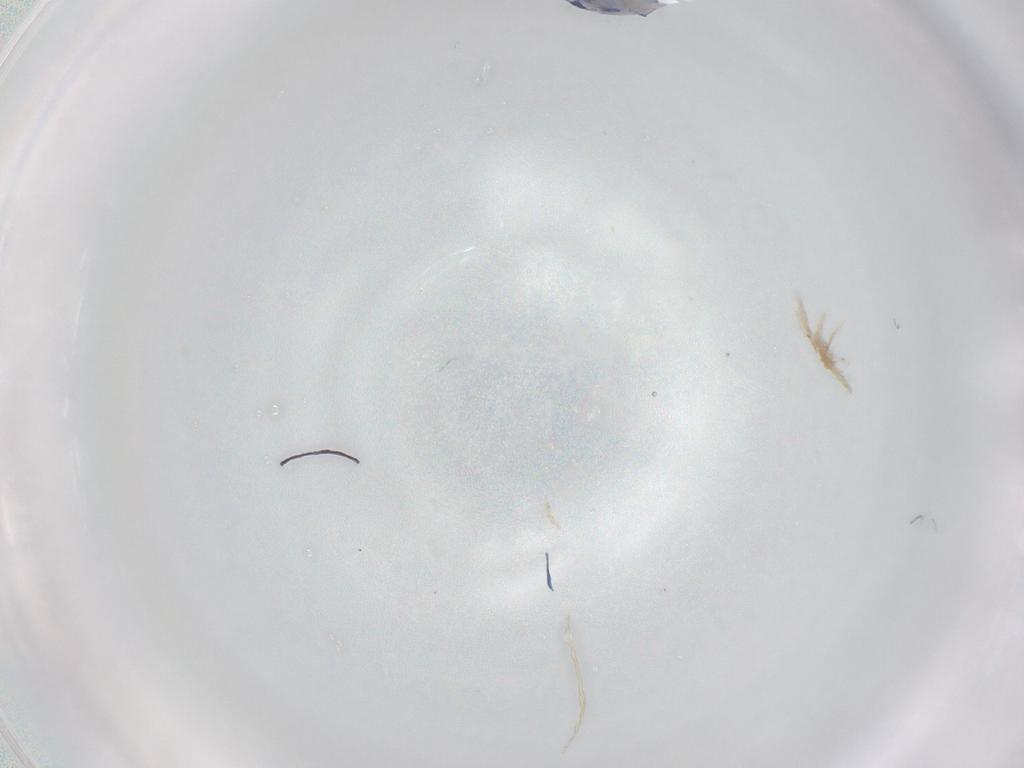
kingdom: Animalia
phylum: Arthropoda
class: Collembola
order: Entomobryomorpha
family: Entomobryidae
